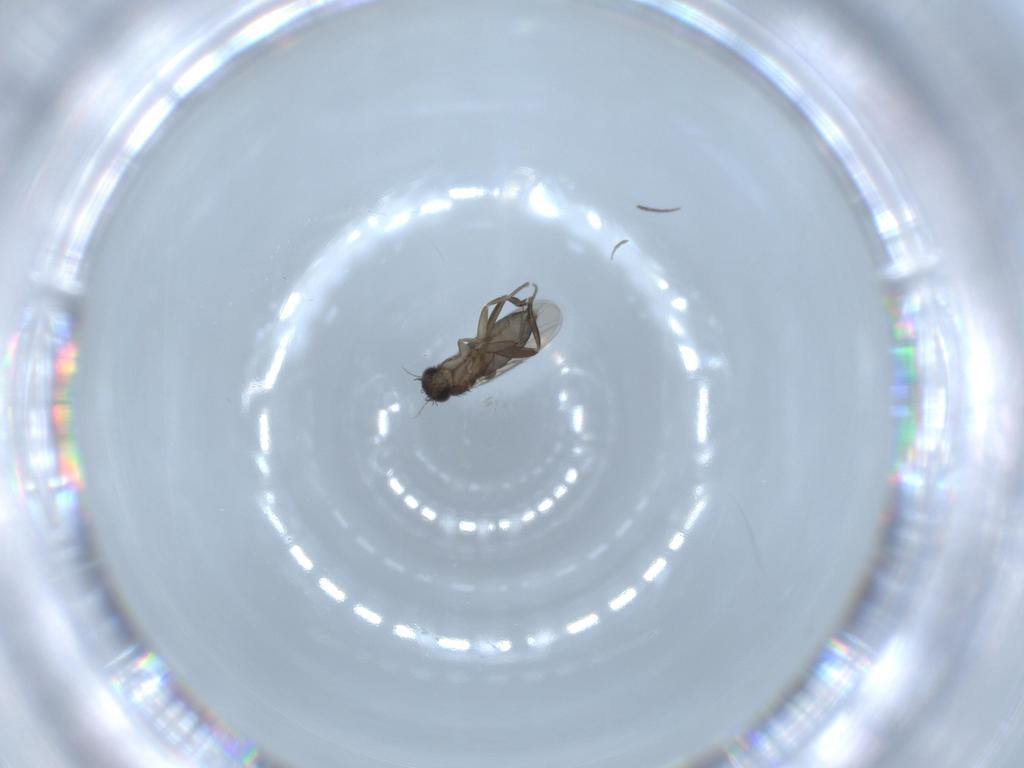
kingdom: Animalia
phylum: Arthropoda
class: Insecta
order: Diptera
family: Phoridae
